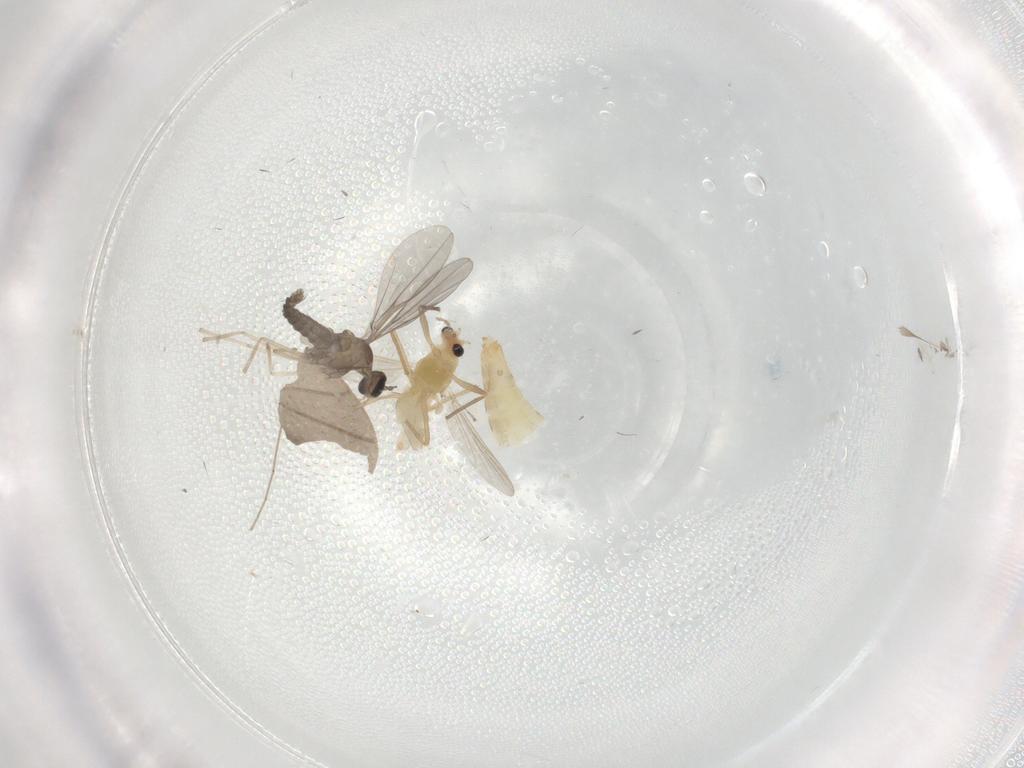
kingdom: Animalia
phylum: Arthropoda
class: Insecta
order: Diptera
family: Chironomidae
